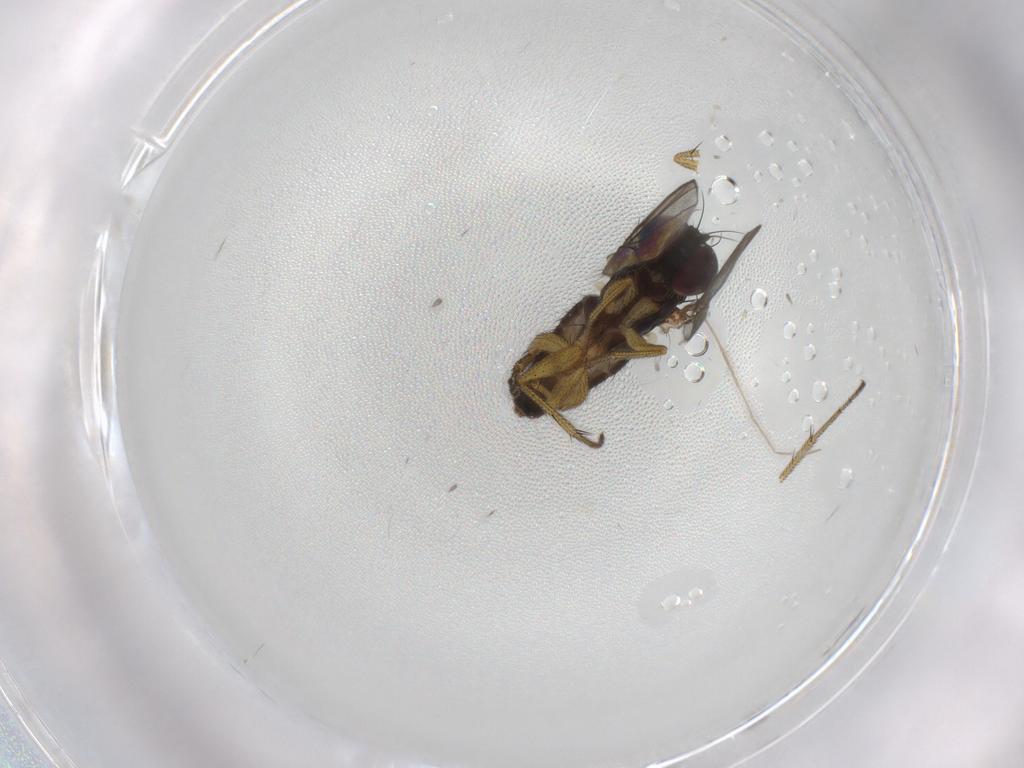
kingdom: Animalia
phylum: Arthropoda
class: Insecta
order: Diptera
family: Dolichopodidae
